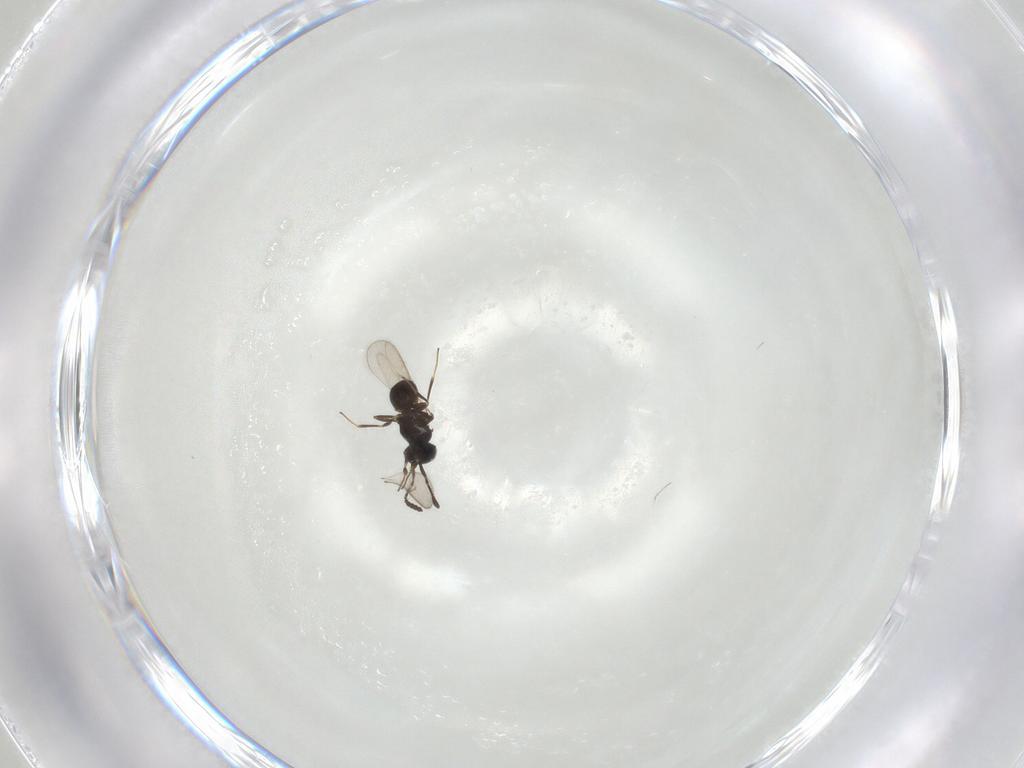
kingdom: Animalia
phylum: Arthropoda
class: Insecta
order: Hymenoptera
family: Scelionidae
